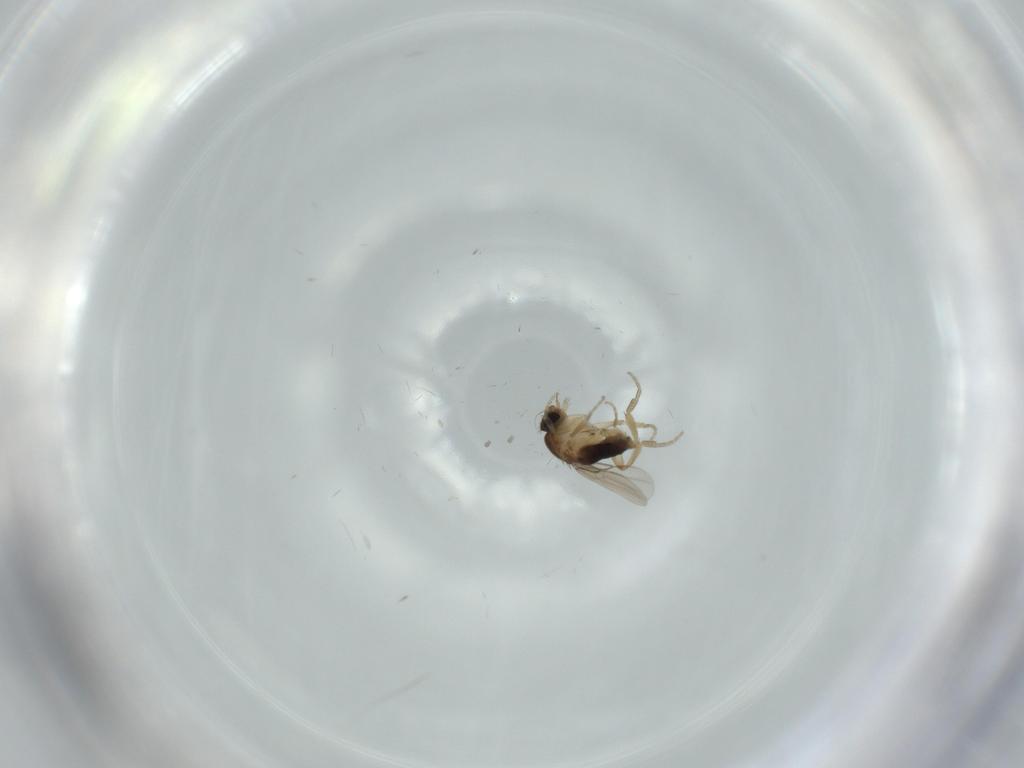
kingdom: Animalia
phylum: Arthropoda
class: Insecta
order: Diptera
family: Phoridae
